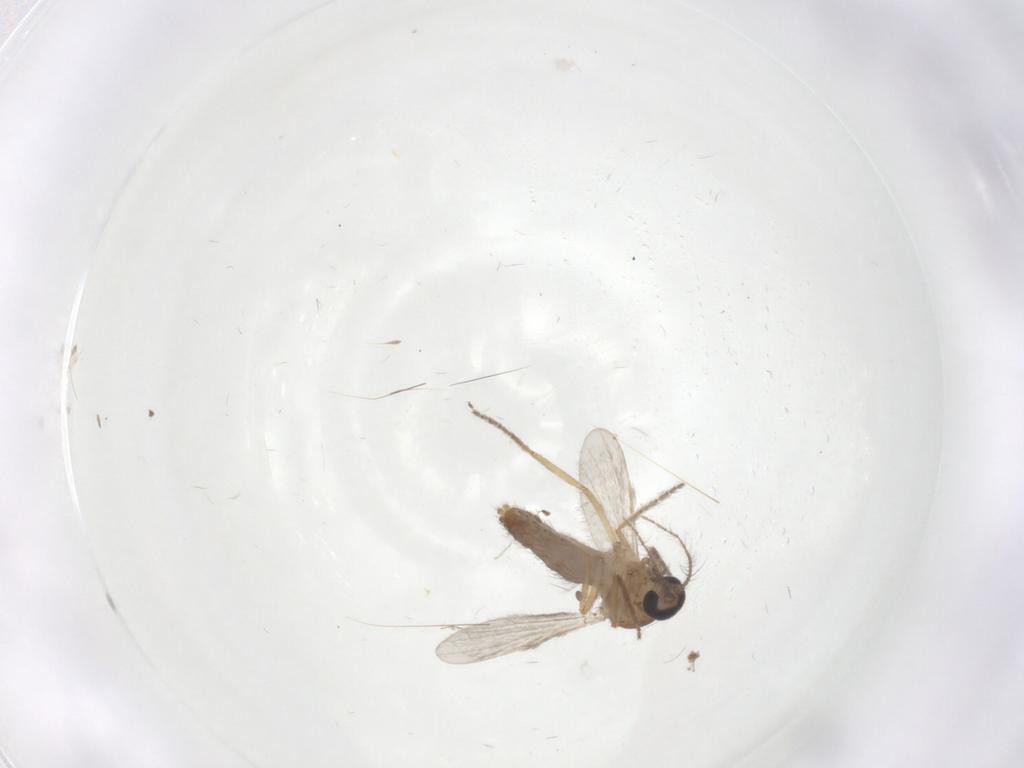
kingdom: Animalia
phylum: Arthropoda
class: Insecta
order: Diptera
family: Ceratopogonidae
